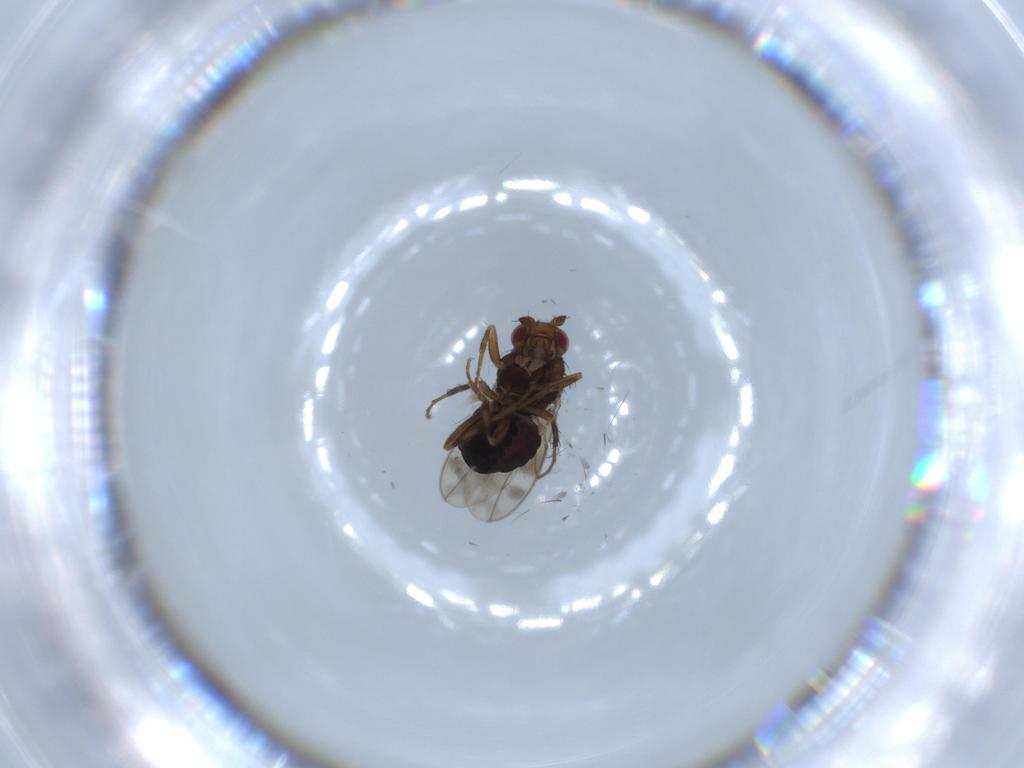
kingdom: Animalia
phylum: Arthropoda
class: Insecta
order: Diptera
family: Sphaeroceridae
